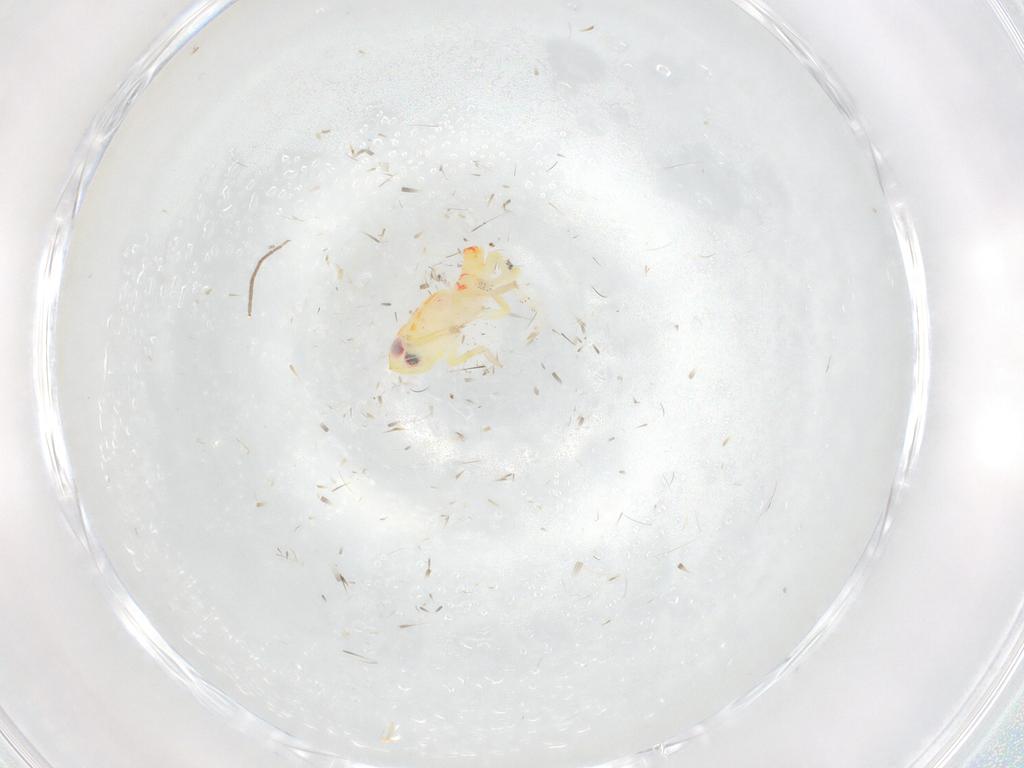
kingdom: Animalia
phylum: Arthropoda
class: Insecta
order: Hemiptera
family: Tropiduchidae
